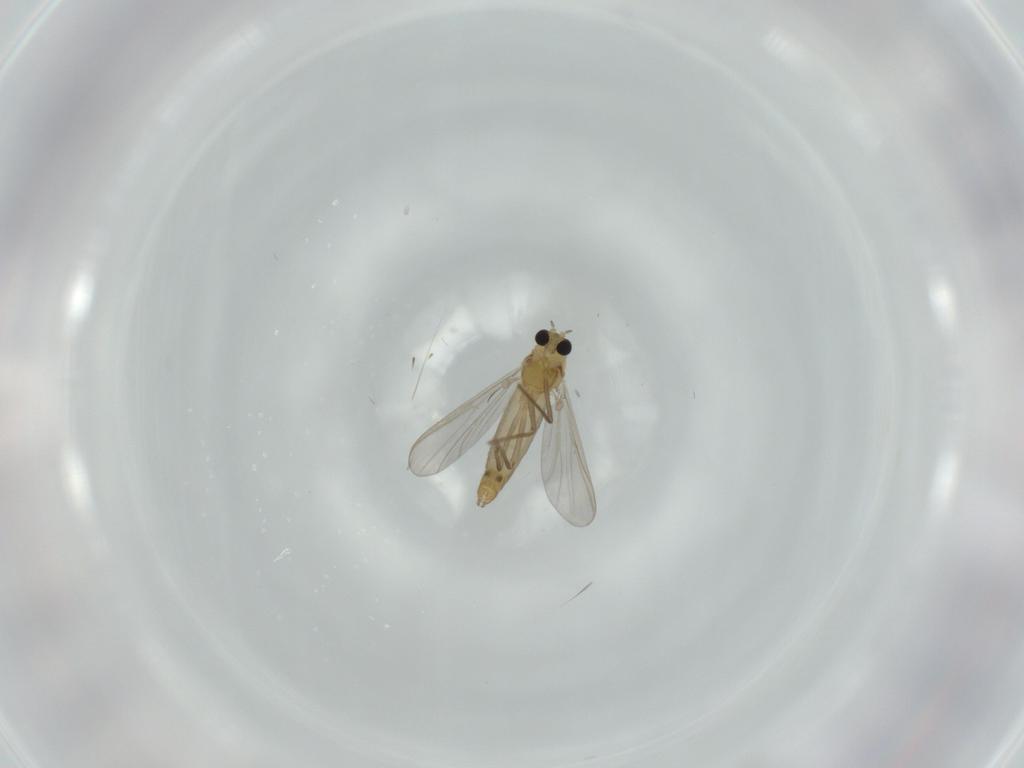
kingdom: Animalia
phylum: Arthropoda
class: Insecta
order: Diptera
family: Chironomidae
